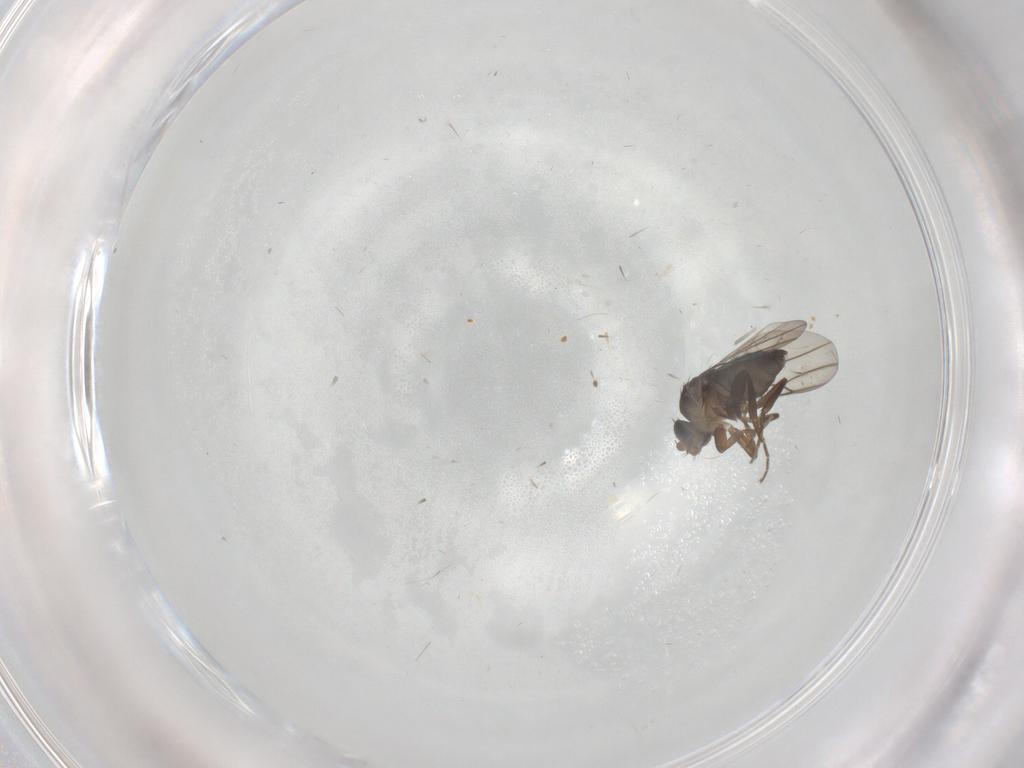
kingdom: Animalia
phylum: Arthropoda
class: Insecta
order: Diptera
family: Phoridae
